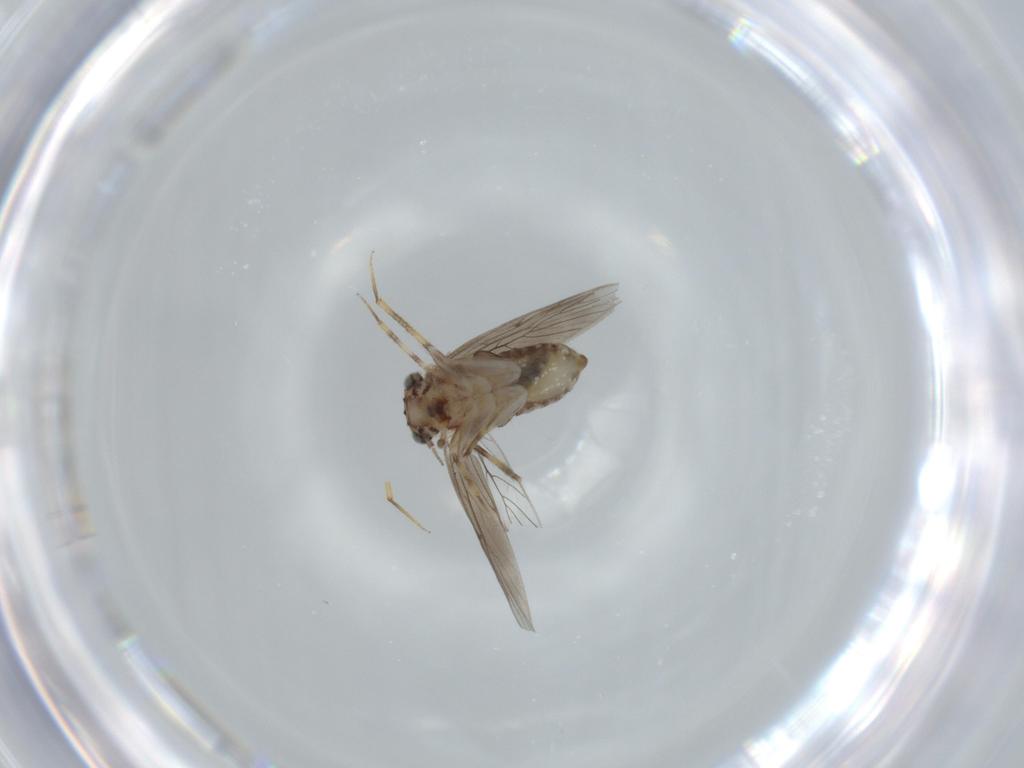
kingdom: Animalia
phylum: Arthropoda
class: Insecta
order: Psocodea
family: Lepidopsocidae
